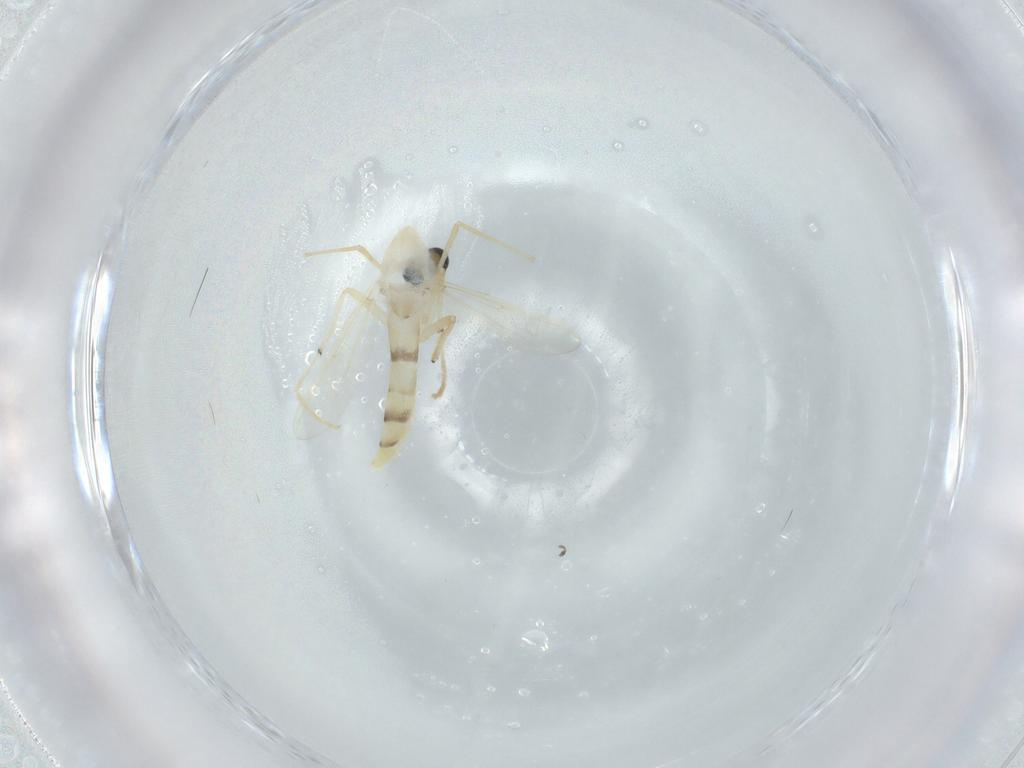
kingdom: Animalia
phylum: Arthropoda
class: Insecta
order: Diptera
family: Chironomidae
